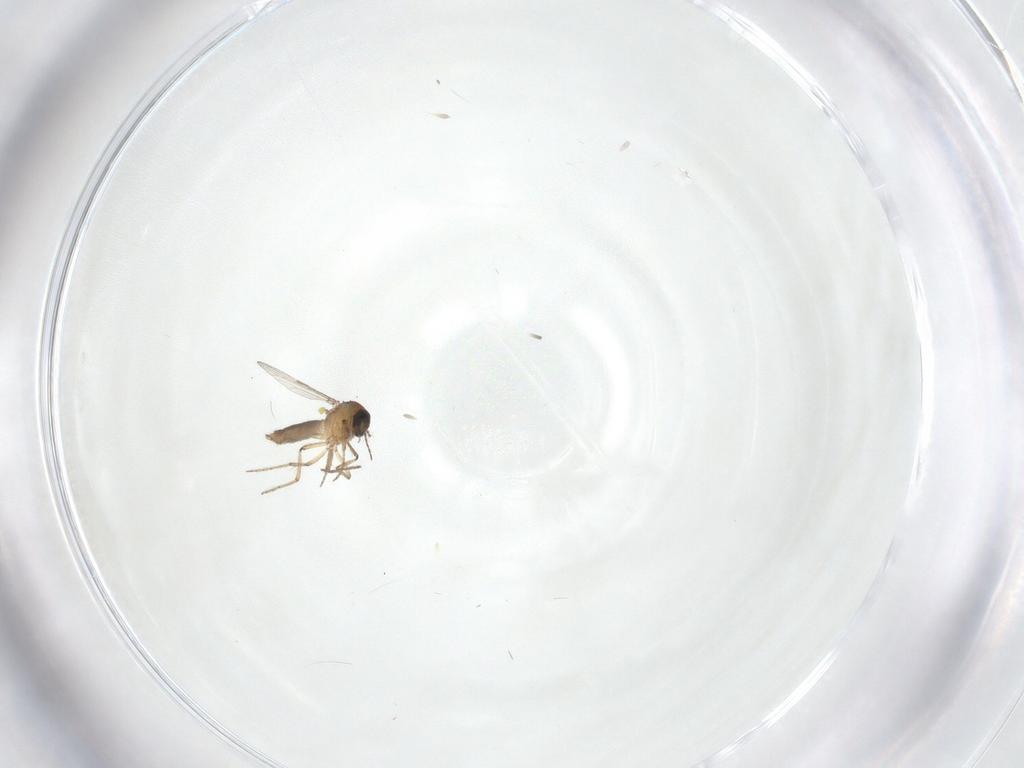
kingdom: Animalia
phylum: Arthropoda
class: Insecta
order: Diptera
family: Ceratopogonidae
